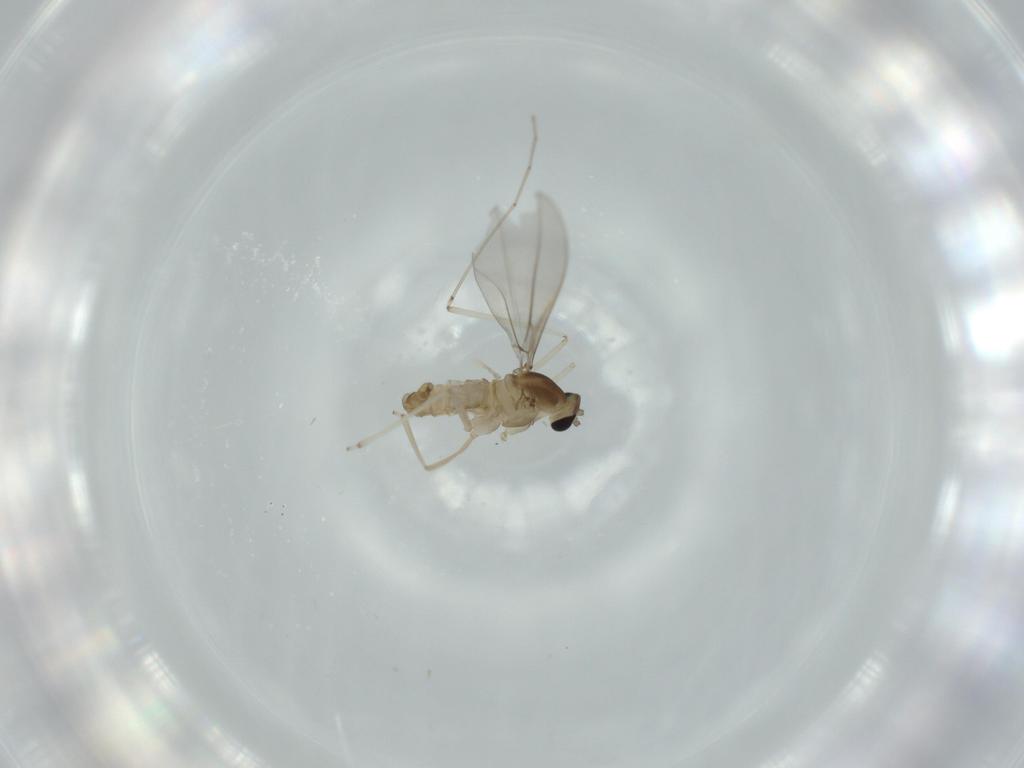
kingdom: Animalia
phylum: Arthropoda
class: Insecta
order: Diptera
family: Cecidomyiidae
